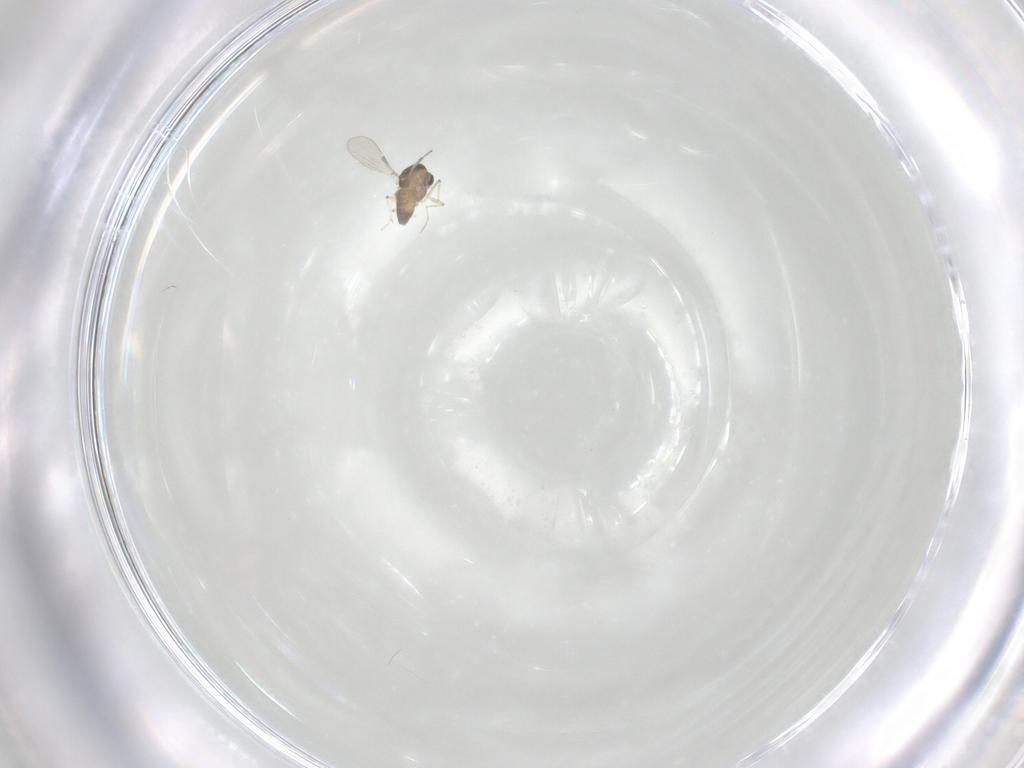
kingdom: Animalia
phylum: Arthropoda
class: Insecta
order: Diptera
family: Chironomidae
